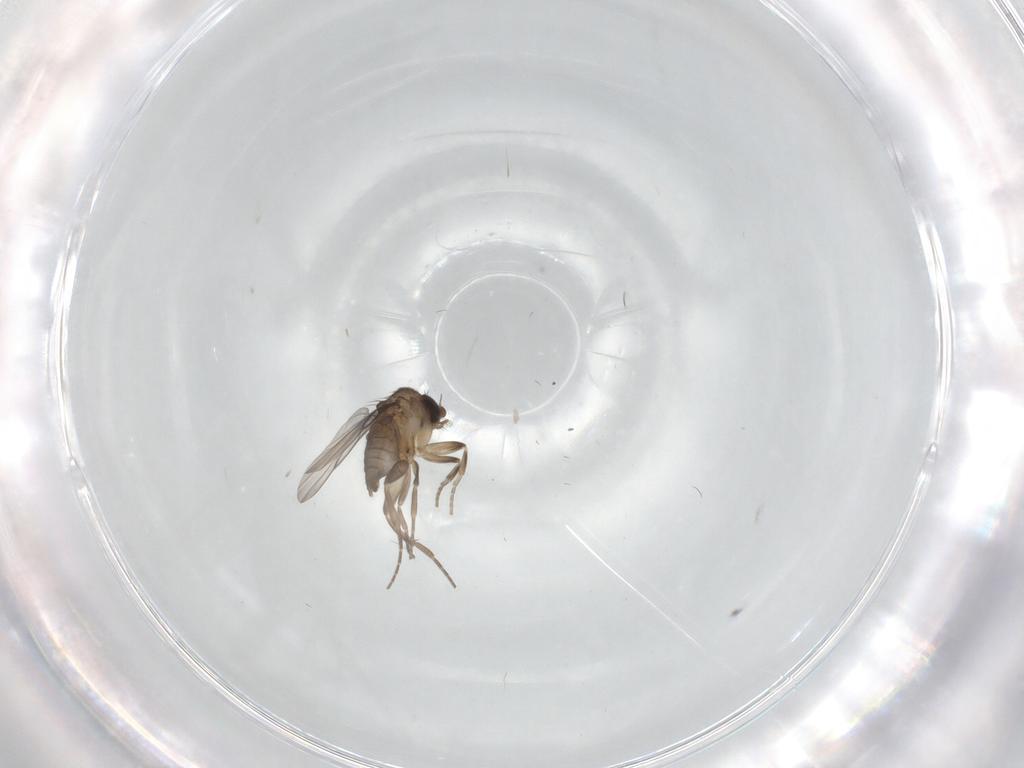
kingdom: Animalia
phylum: Arthropoda
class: Insecta
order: Diptera
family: Phoridae
